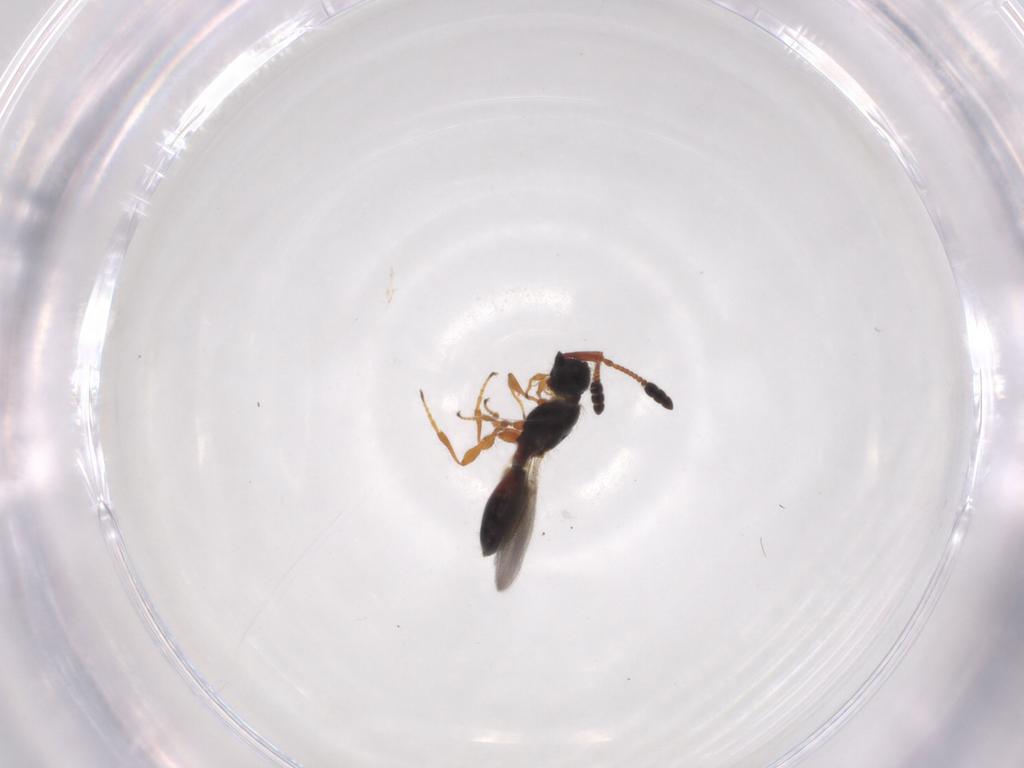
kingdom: Animalia
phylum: Arthropoda
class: Insecta
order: Hymenoptera
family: Diapriidae
